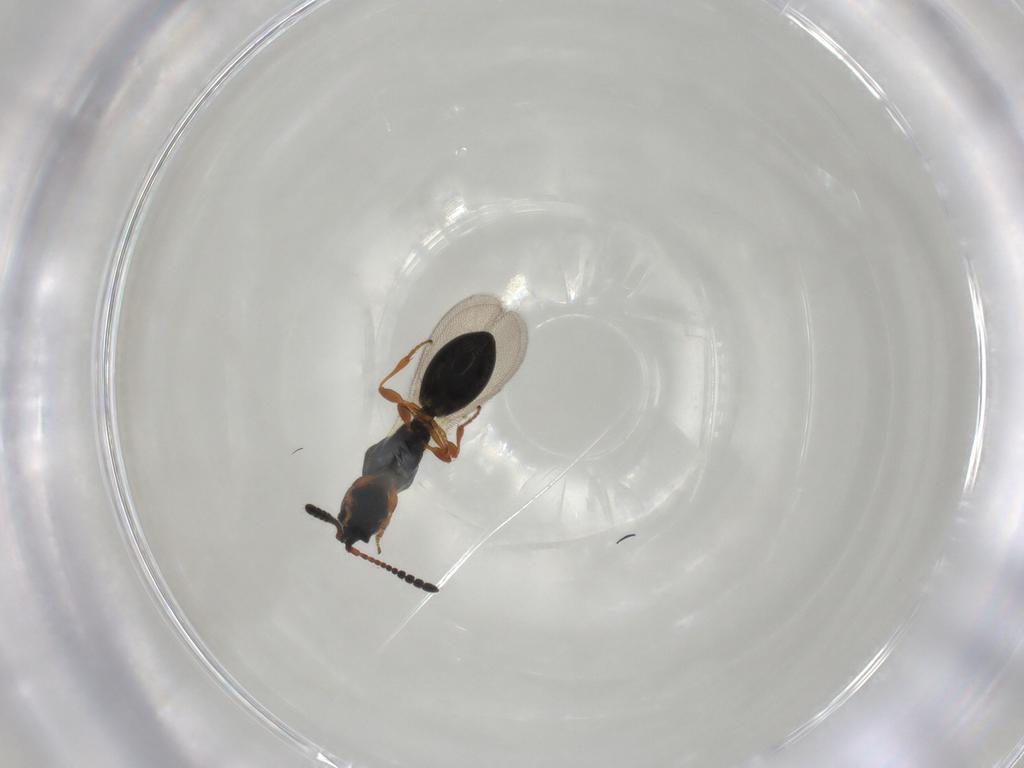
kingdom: Animalia
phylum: Arthropoda
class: Insecta
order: Hymenoptera
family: Diapriidae
